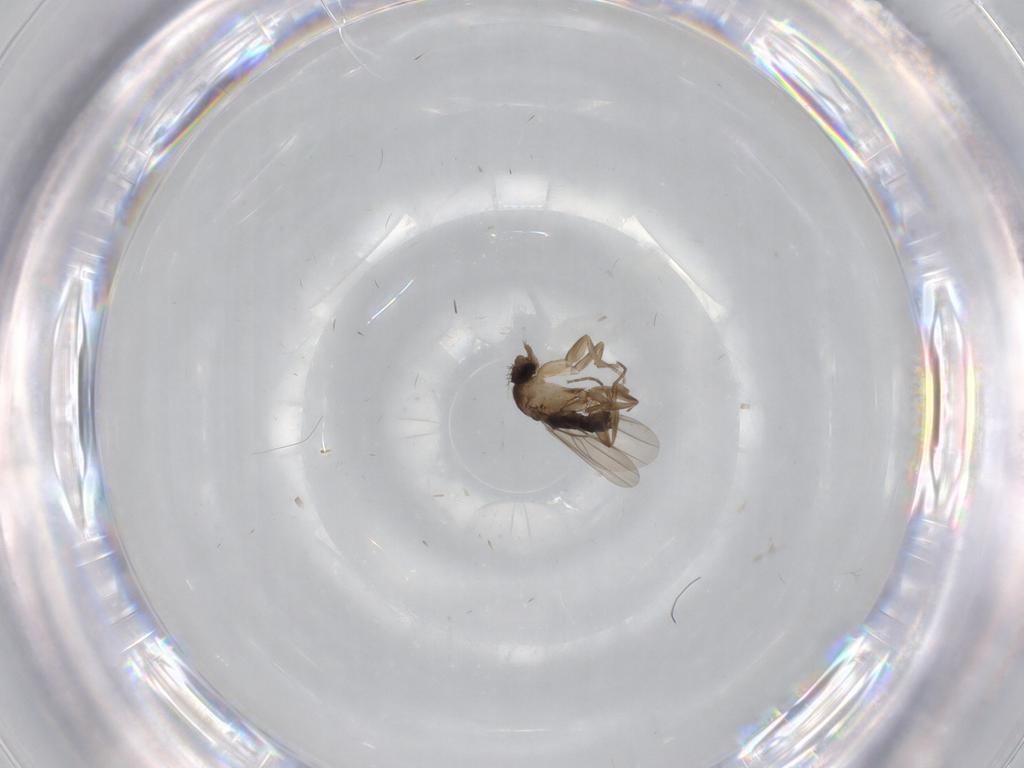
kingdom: Animalia
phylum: Arthropoda
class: Insecta
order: Diptera
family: Phoridae
